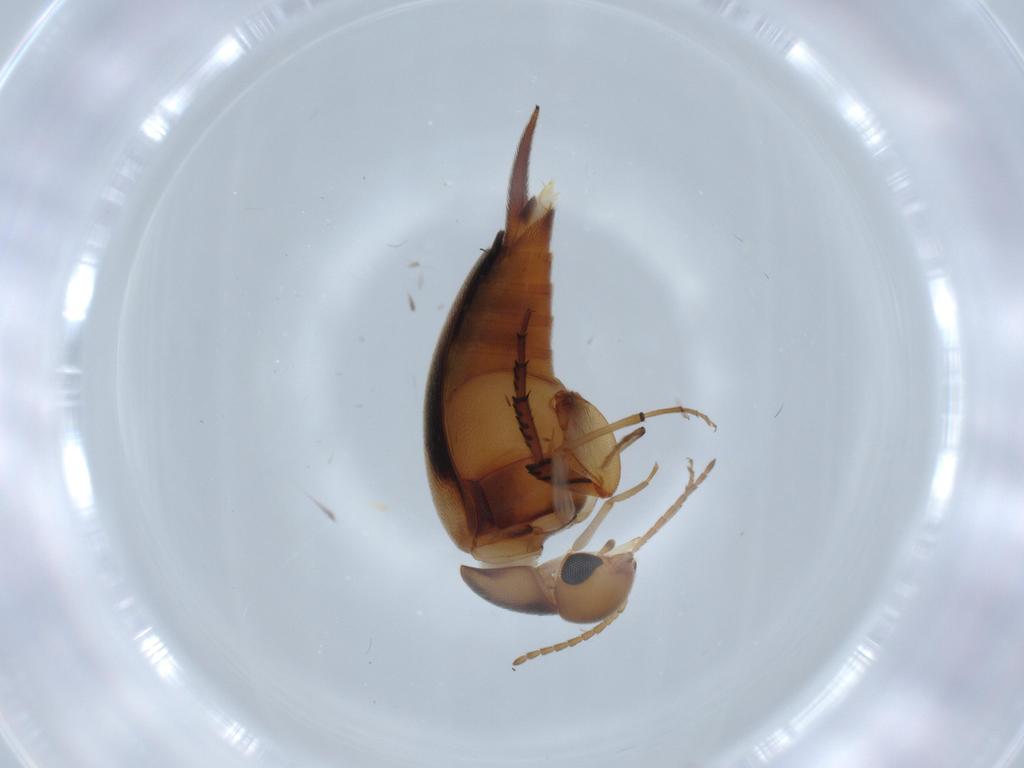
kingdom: Animalia
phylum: Arthropoda
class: Insecta
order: Coleoptera
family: Mordellidae
